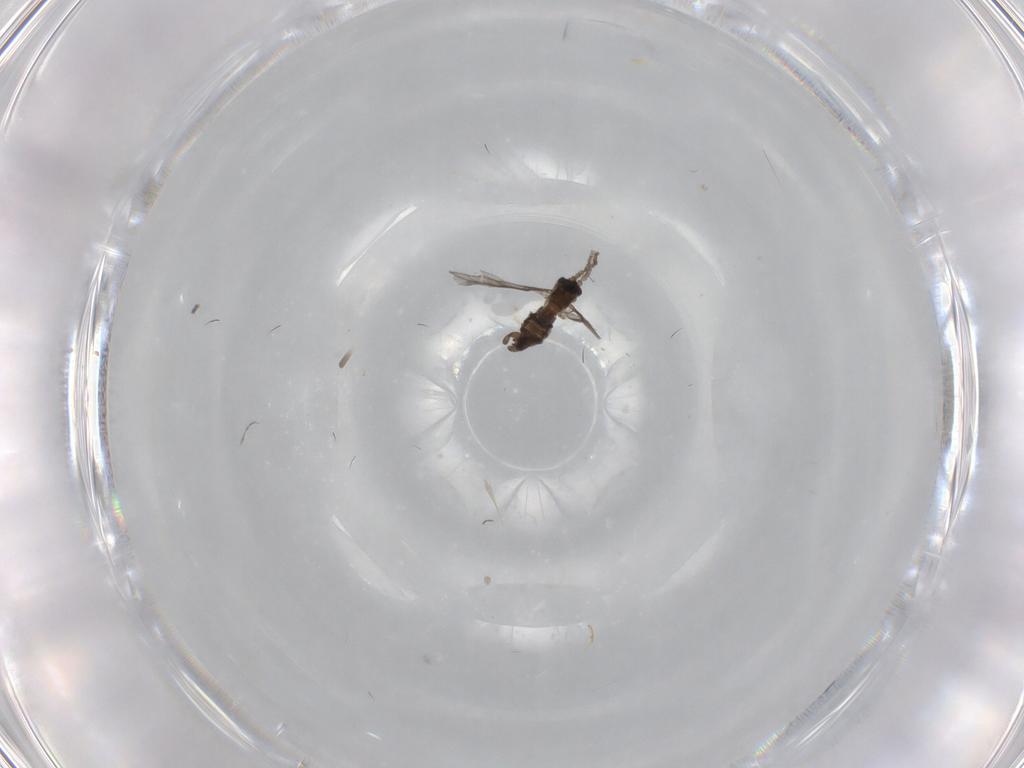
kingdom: Animalia
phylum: Arthropoda
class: Insecta
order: Diptera
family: Sciaridae
